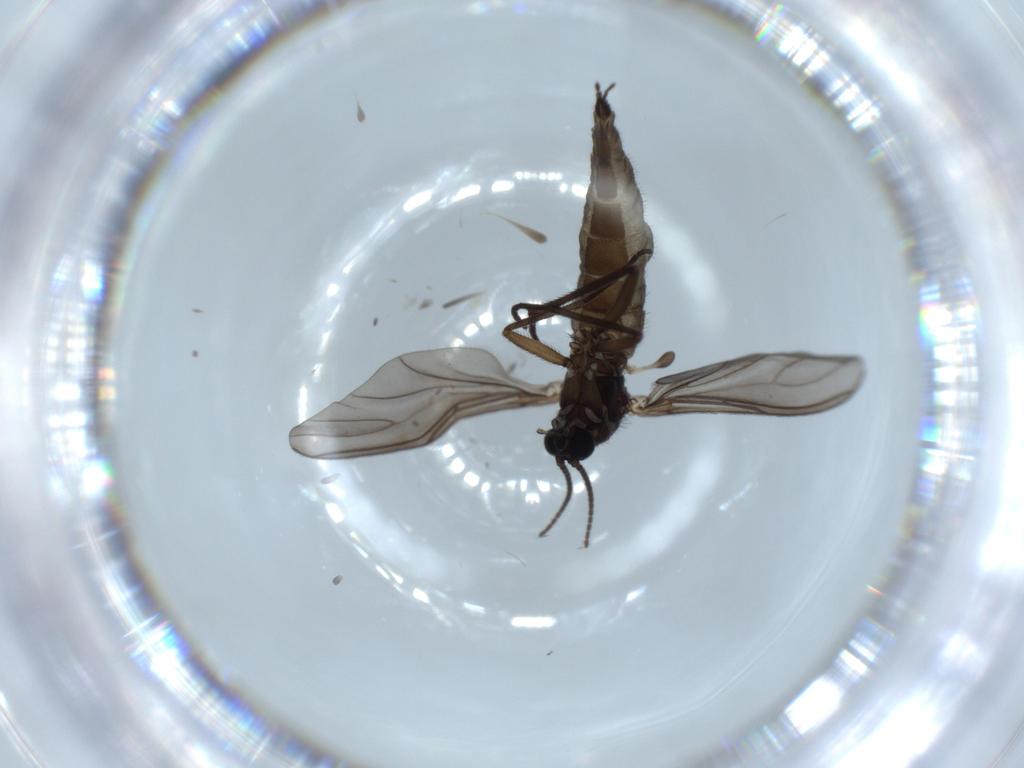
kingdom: Animalia
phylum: Arthropoda
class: Insecta
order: Diptera
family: Sciaridae
